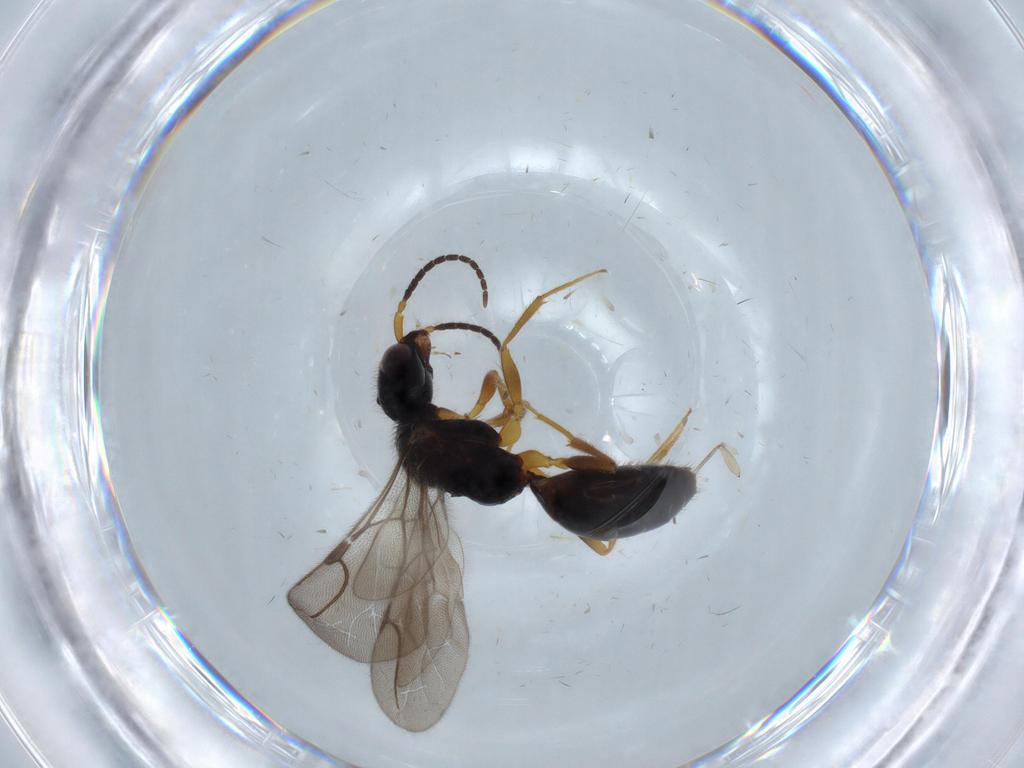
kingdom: Animalia
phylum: Arthropoda
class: Insecta
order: Hymenoptera
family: Bethylidae
